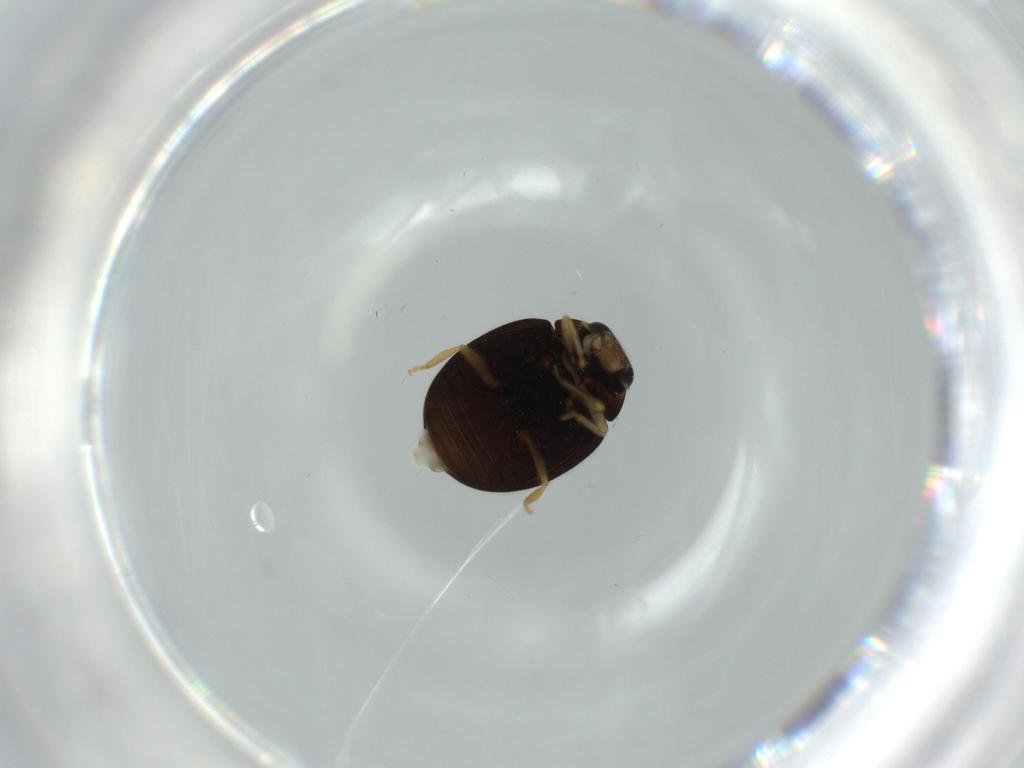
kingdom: Animalia
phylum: Arthropoda
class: Insecta
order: Coleoptera
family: Coccinellidae
